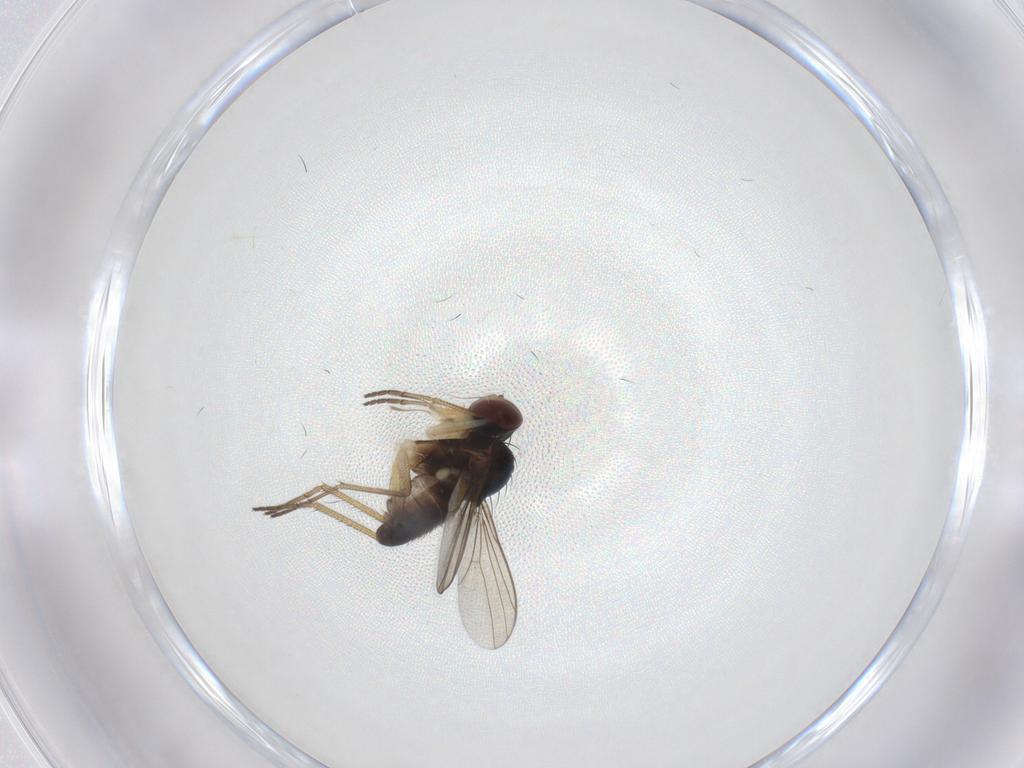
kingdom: Animalia
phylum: Arthropoda
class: Insecta
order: Diptera
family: Dolichopodidae
